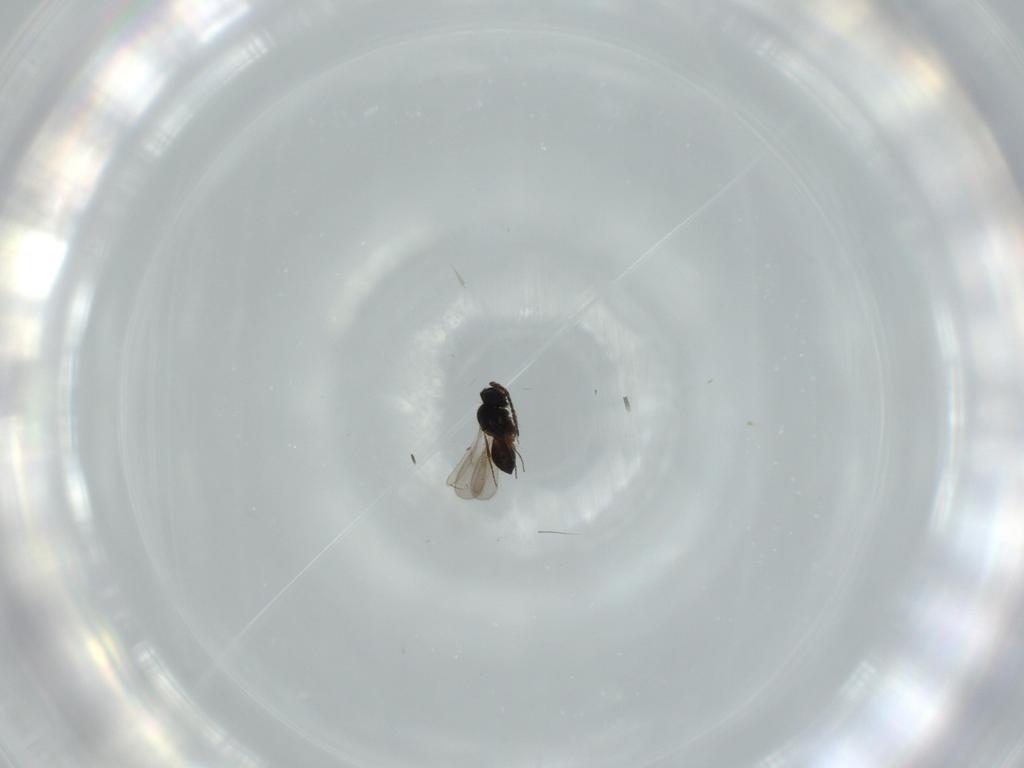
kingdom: Animalia
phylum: Arthropoda
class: Insecta
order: Hymenoptera
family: Scelionidae
